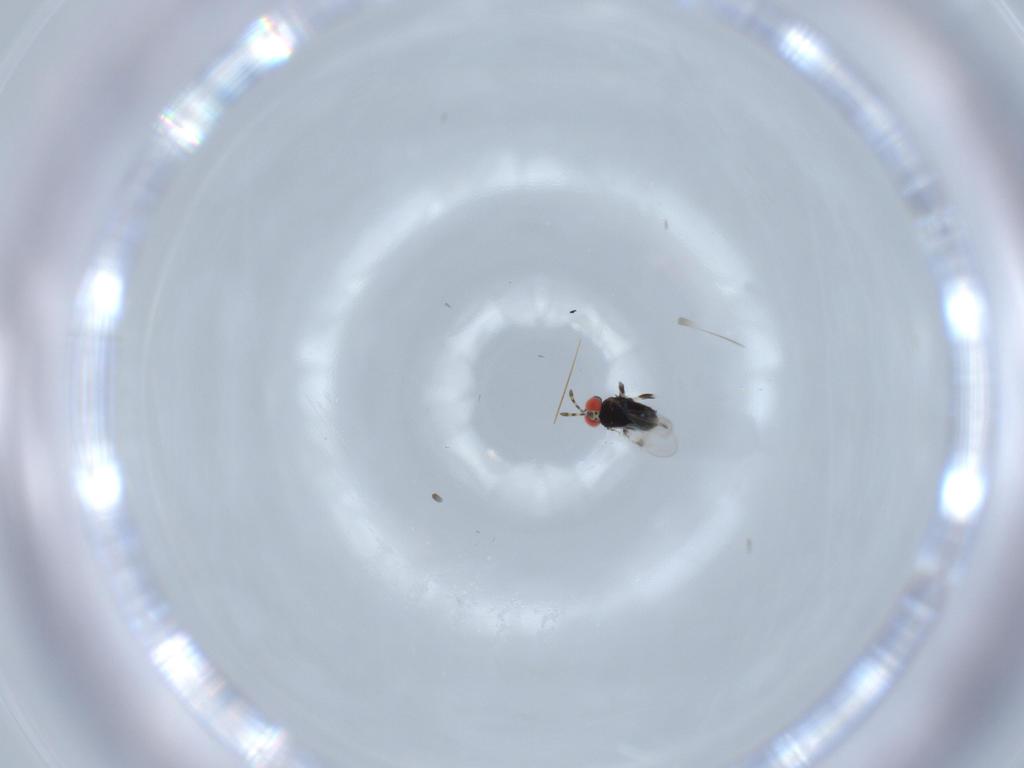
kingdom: Animalia
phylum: Arthropoda
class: Insecta
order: Hymenoptera
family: Azotidae
